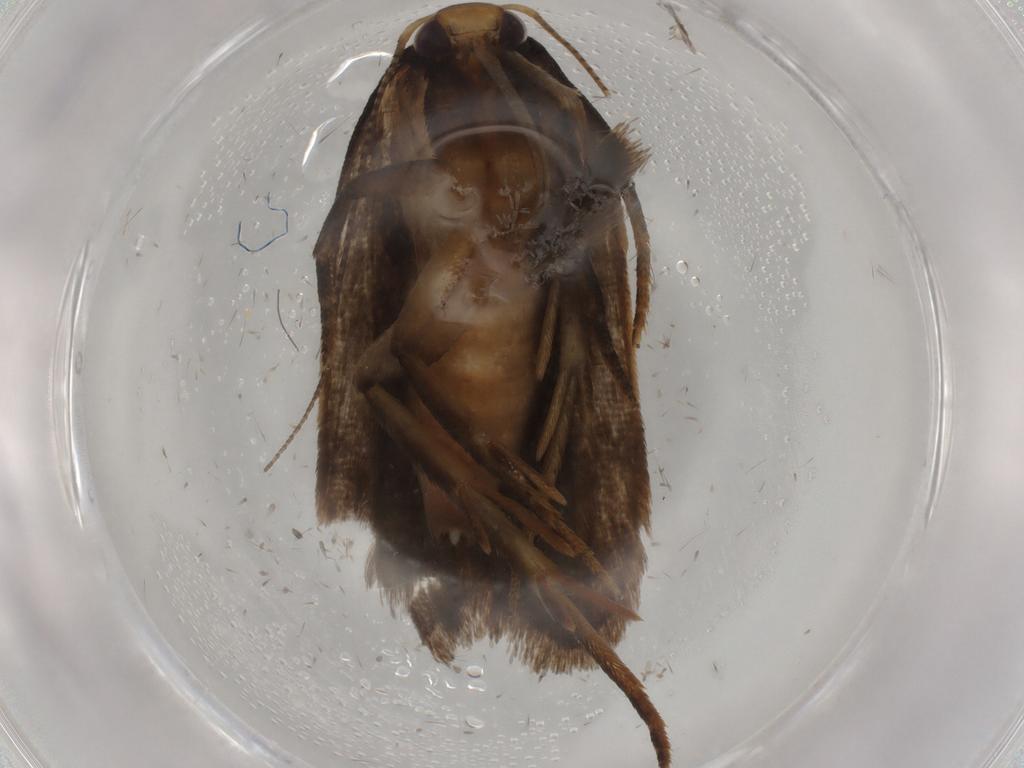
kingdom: Animalia
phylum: Arthropoda
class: Insecta
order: Lepidoptera
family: Gelechiidae
